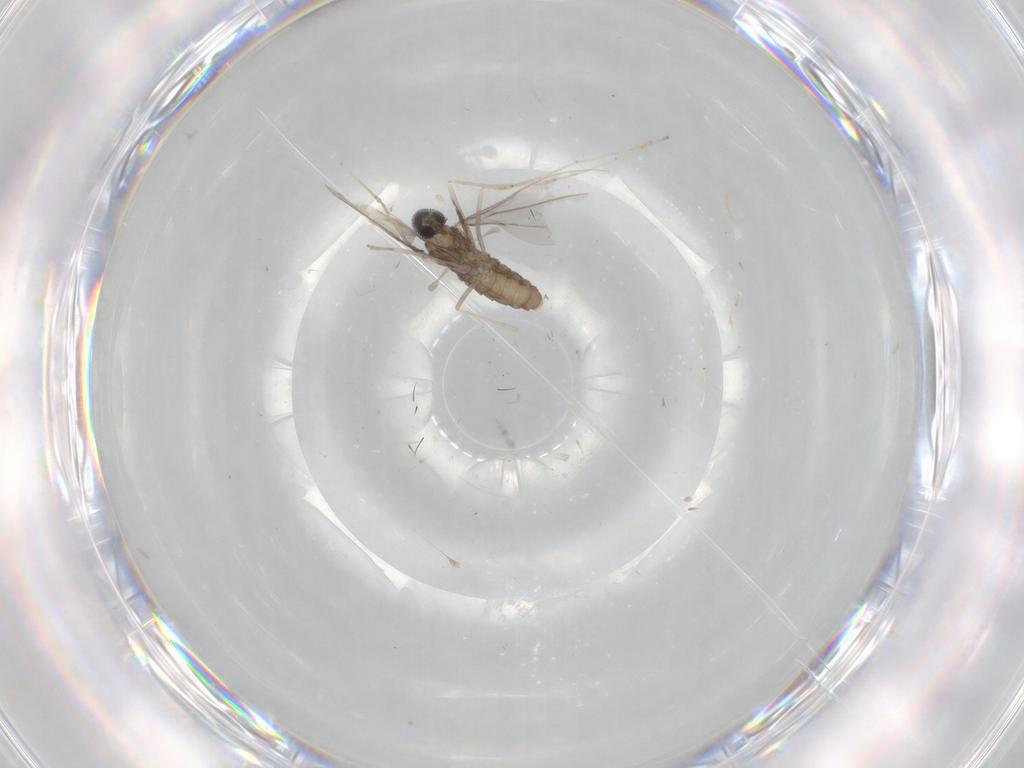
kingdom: Animalia
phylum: Arthropoda
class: Insecta
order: Diptera
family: Cecidomyiidae
